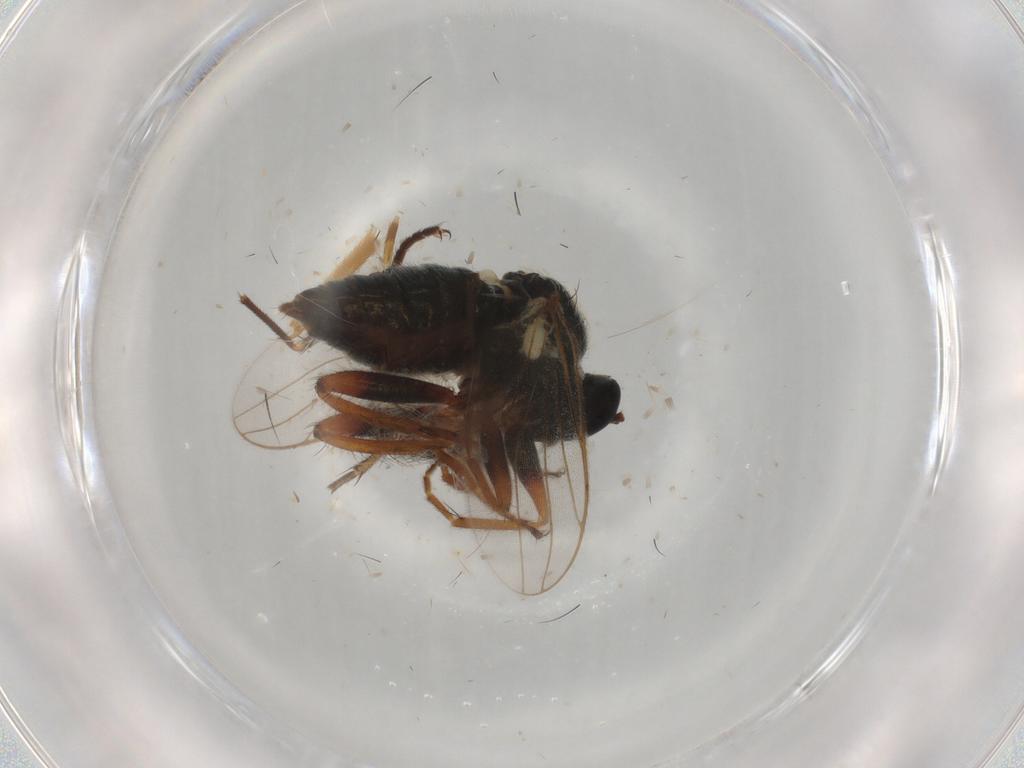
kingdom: Animalia
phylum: Arthropoda
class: Insecta
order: Diptera
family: Hybotidae
